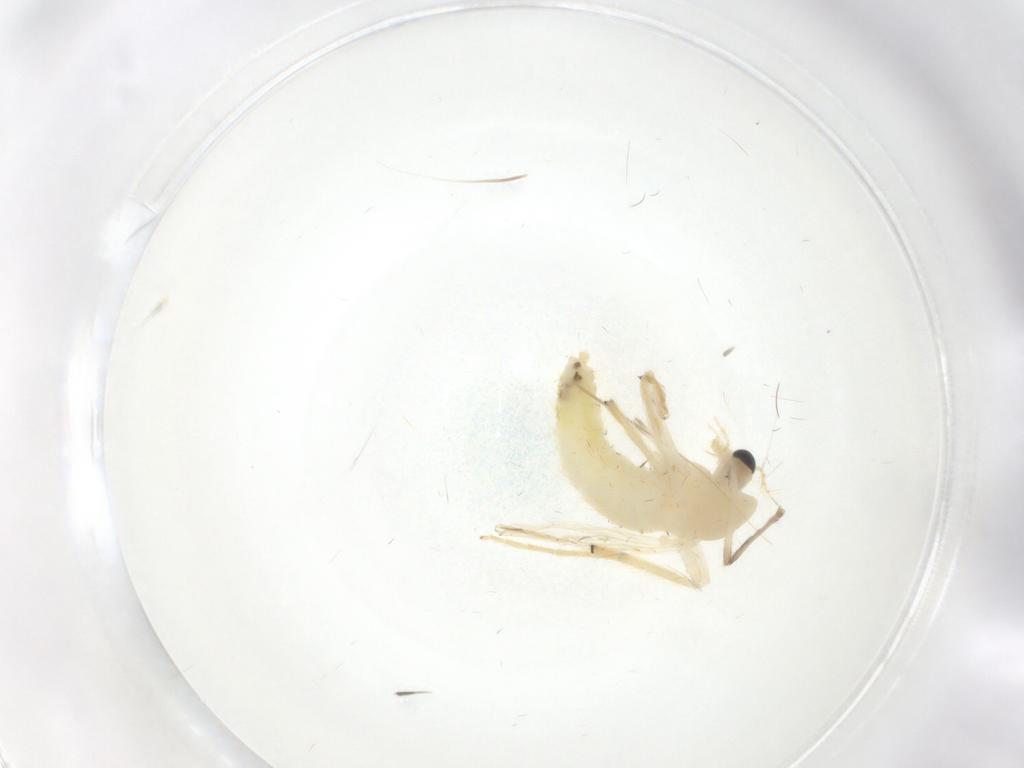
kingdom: Animalia
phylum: Arthropoda
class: Insecta
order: Diptera
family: Chironomidae
